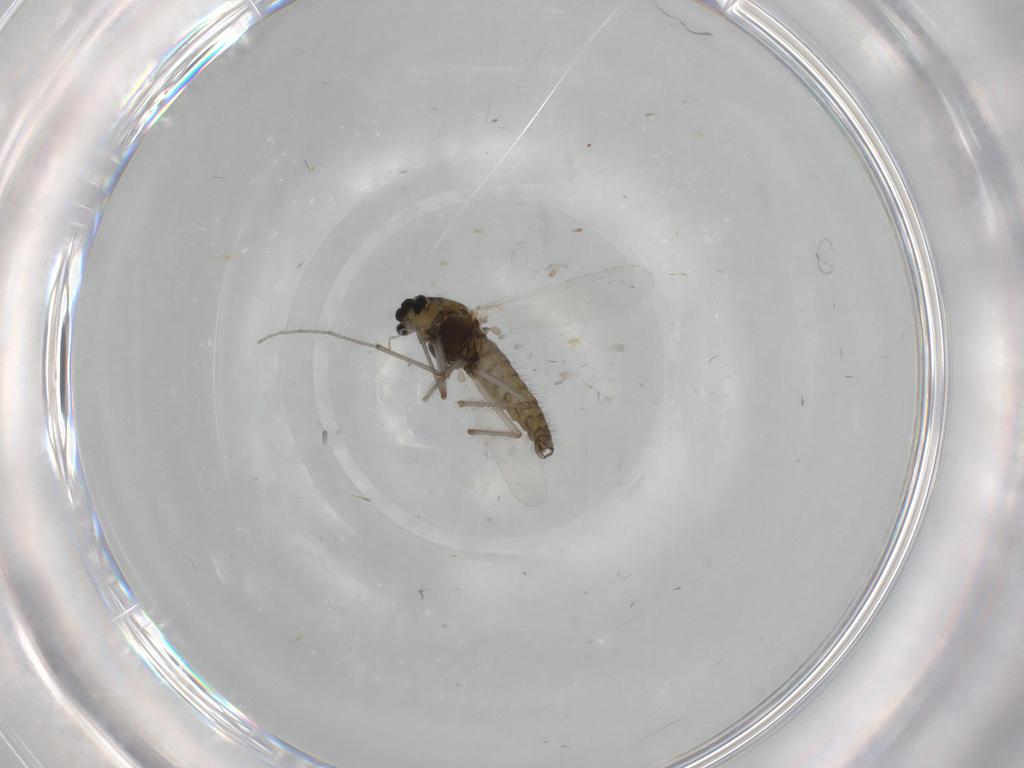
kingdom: Animalia
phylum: Arthropoda
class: Insecta
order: Diptera
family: Chironomidae
